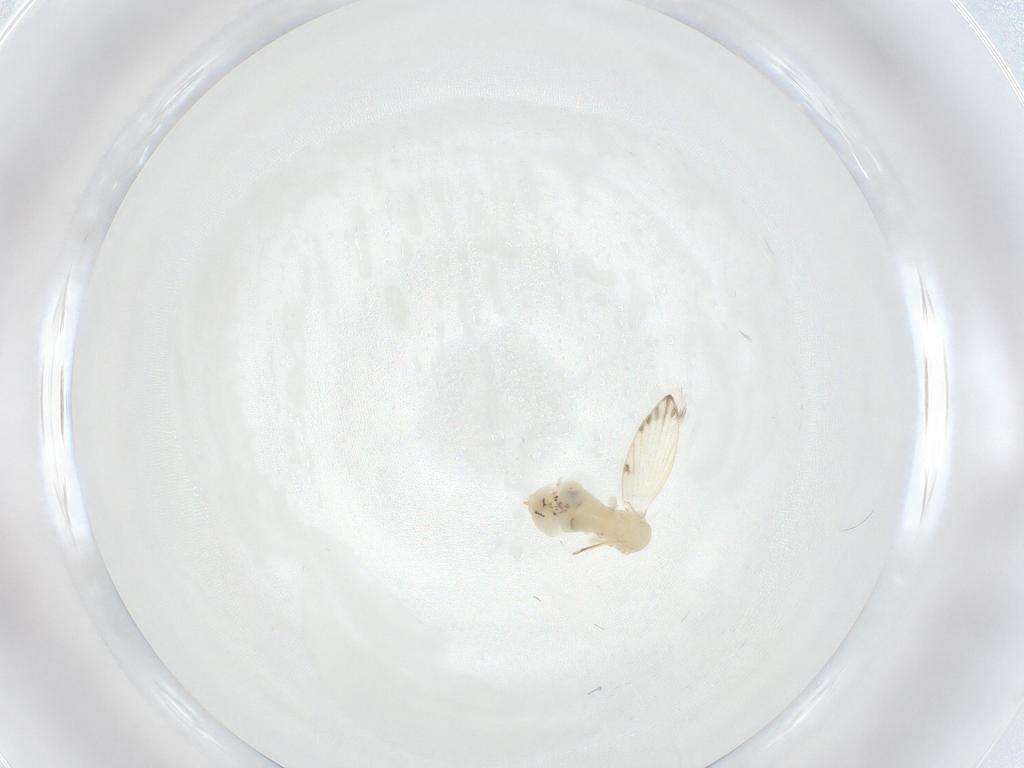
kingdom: Animalia
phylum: Arthropoda
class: Insecta
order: Diptera
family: Psychodidae
